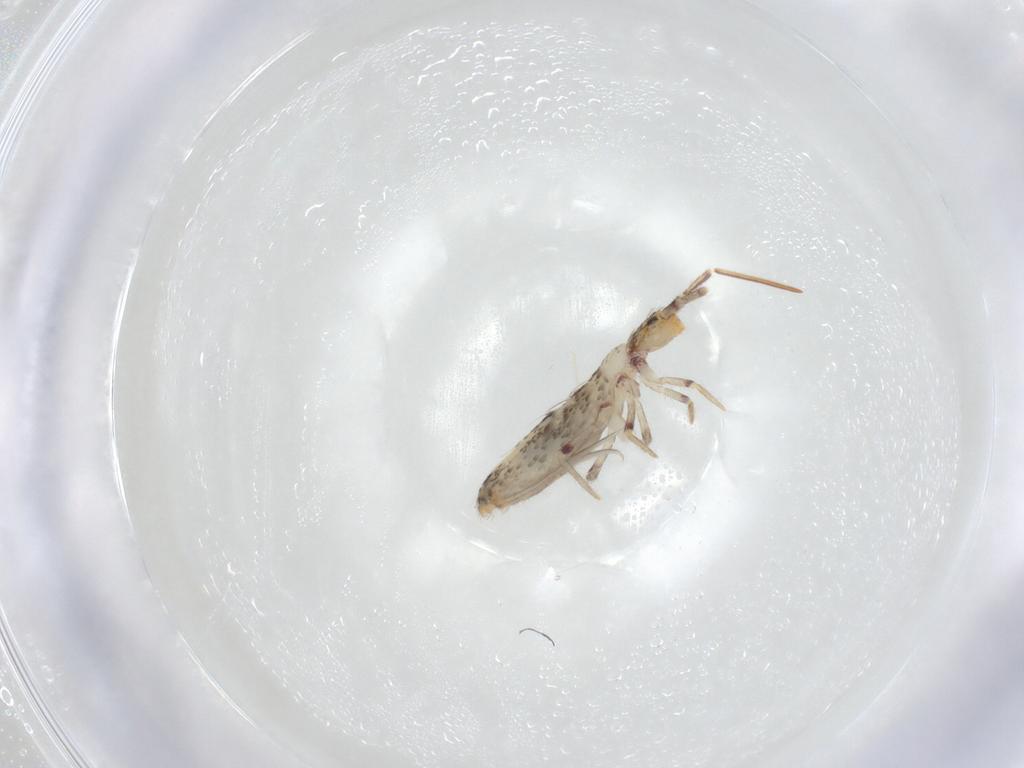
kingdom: Animalia
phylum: Arthropoda
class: Collembola
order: Entomobryomorpha
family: Entomobryidae
